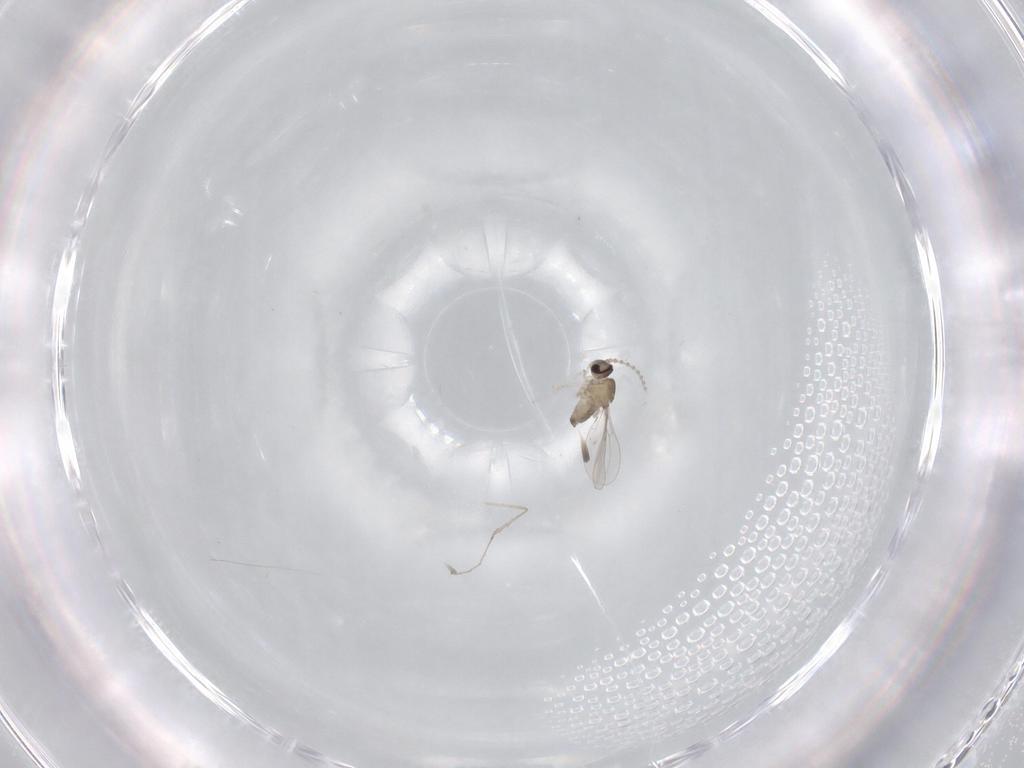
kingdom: Animalia
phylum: Arthropoda
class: Insecta
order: Diptera
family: Cecidomyiidae
